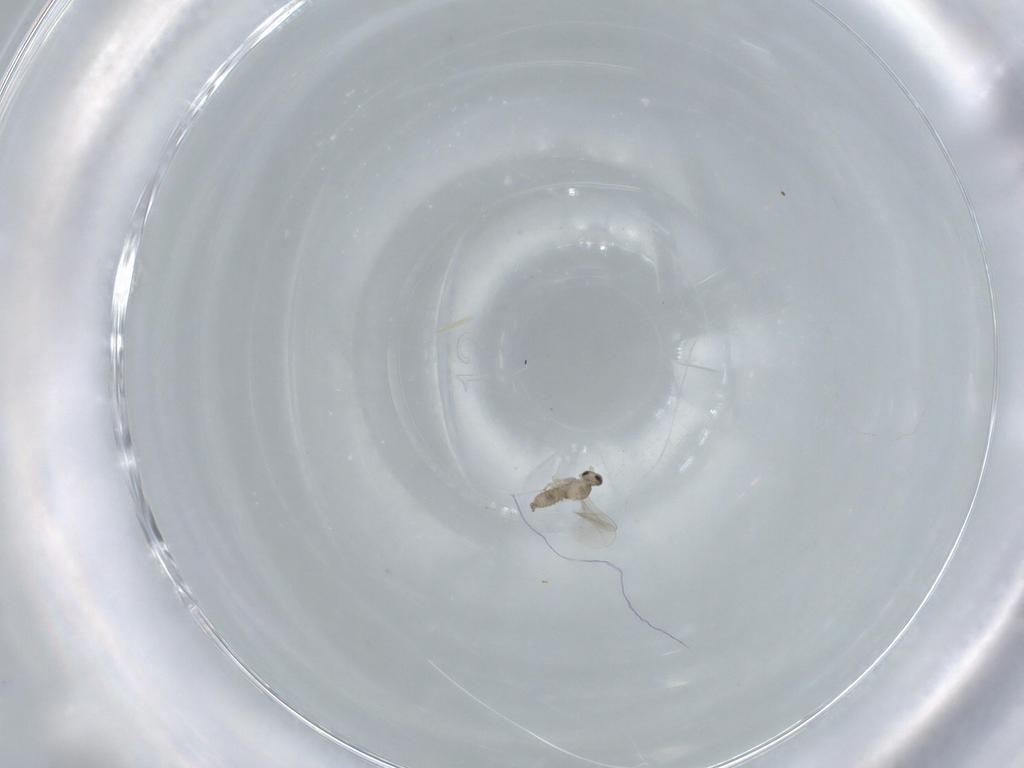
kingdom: Animalia
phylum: Arthropoda
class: Insecta
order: Diptera
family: Cecidomyiidae
